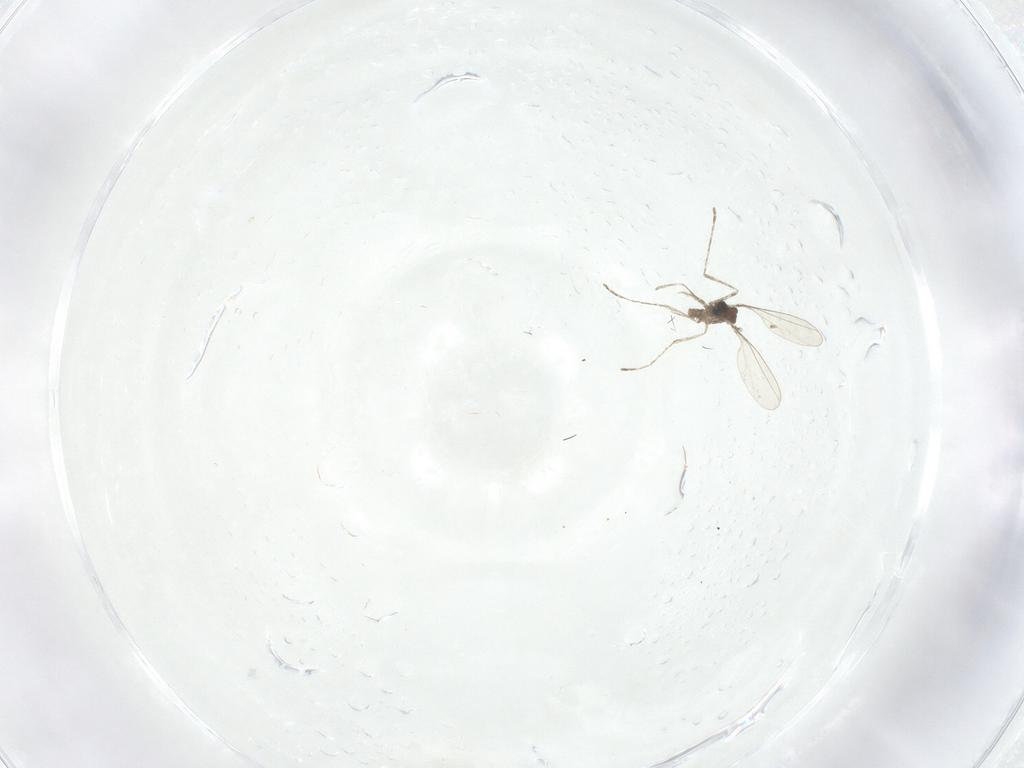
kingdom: Animalia
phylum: Arthropoda
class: Insecta
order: Diptera
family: Tabanidae
